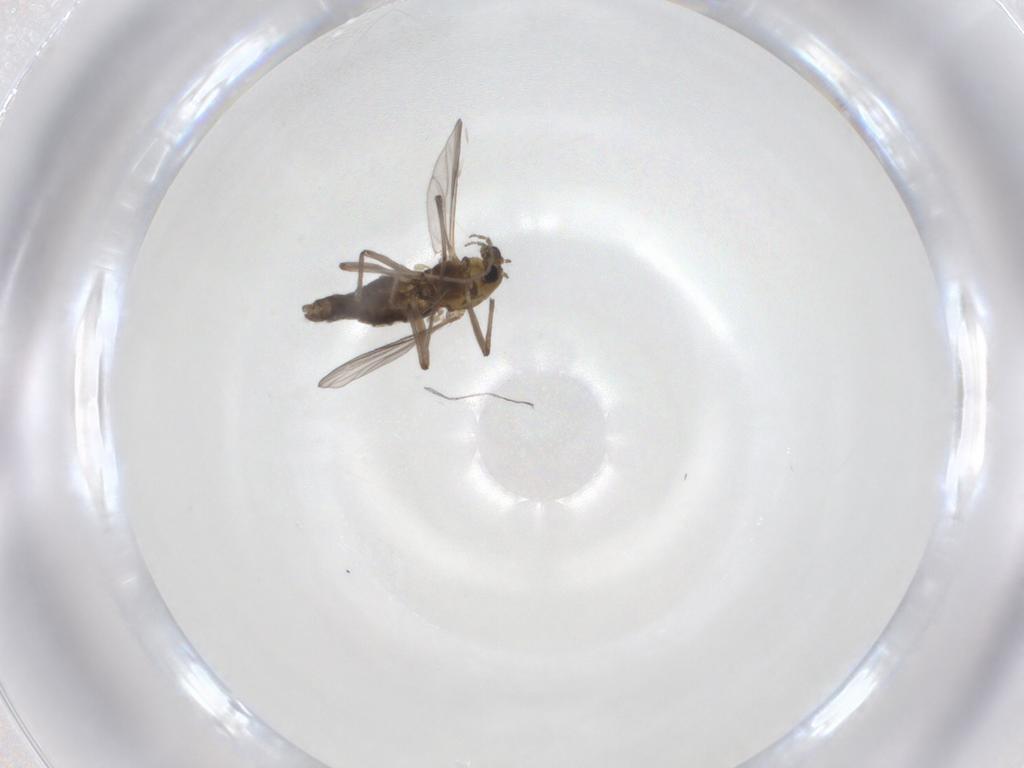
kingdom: Animalia
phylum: Arthropoda
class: Insecta
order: Diptera
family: Chironomidae
